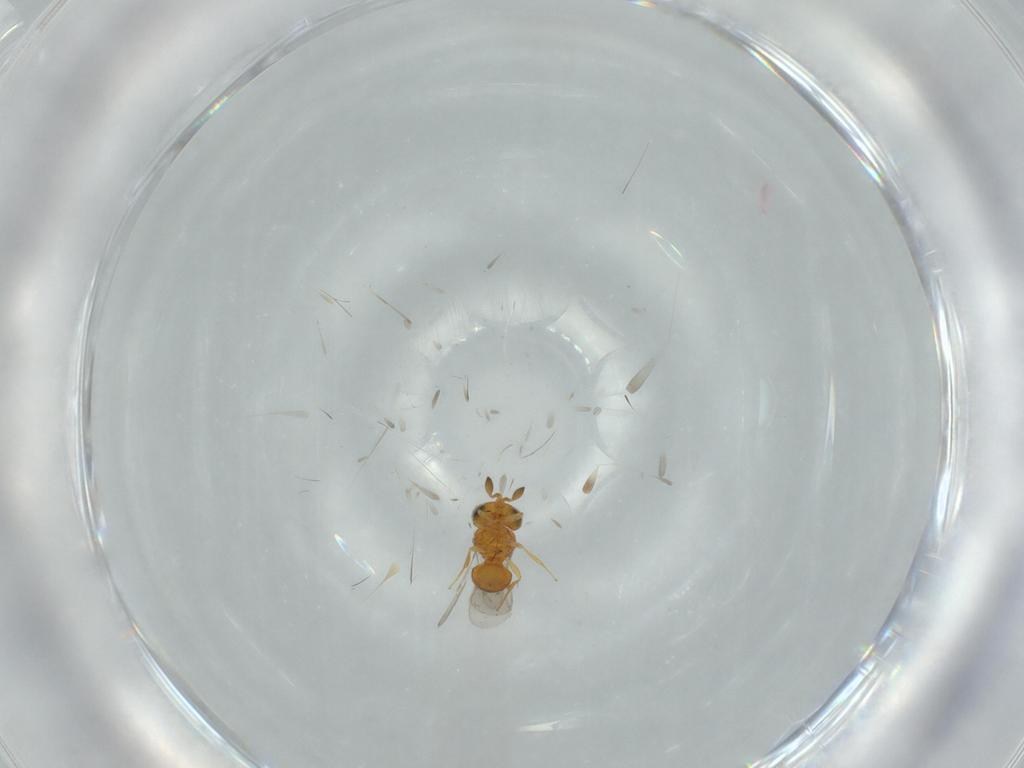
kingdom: Animalia
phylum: Arthropoda
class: Insecta
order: Hymenoptera
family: Scelionidae
